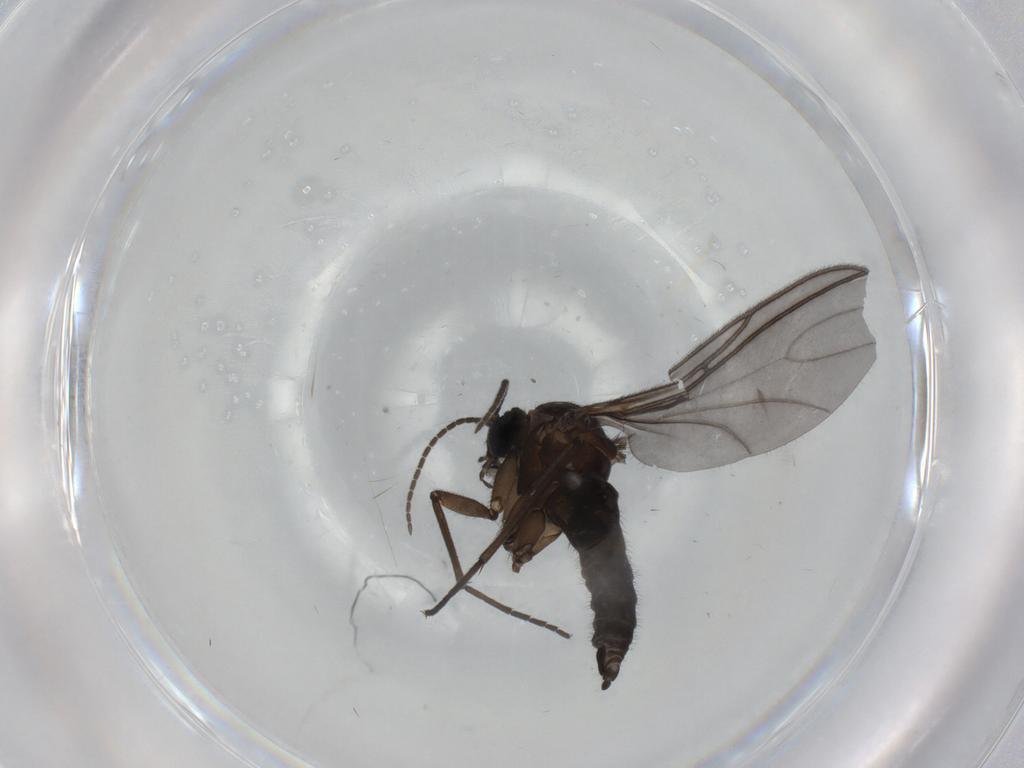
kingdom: Animalia
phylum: Arthropoda
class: Insecta
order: Diptera
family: Sciaridae
